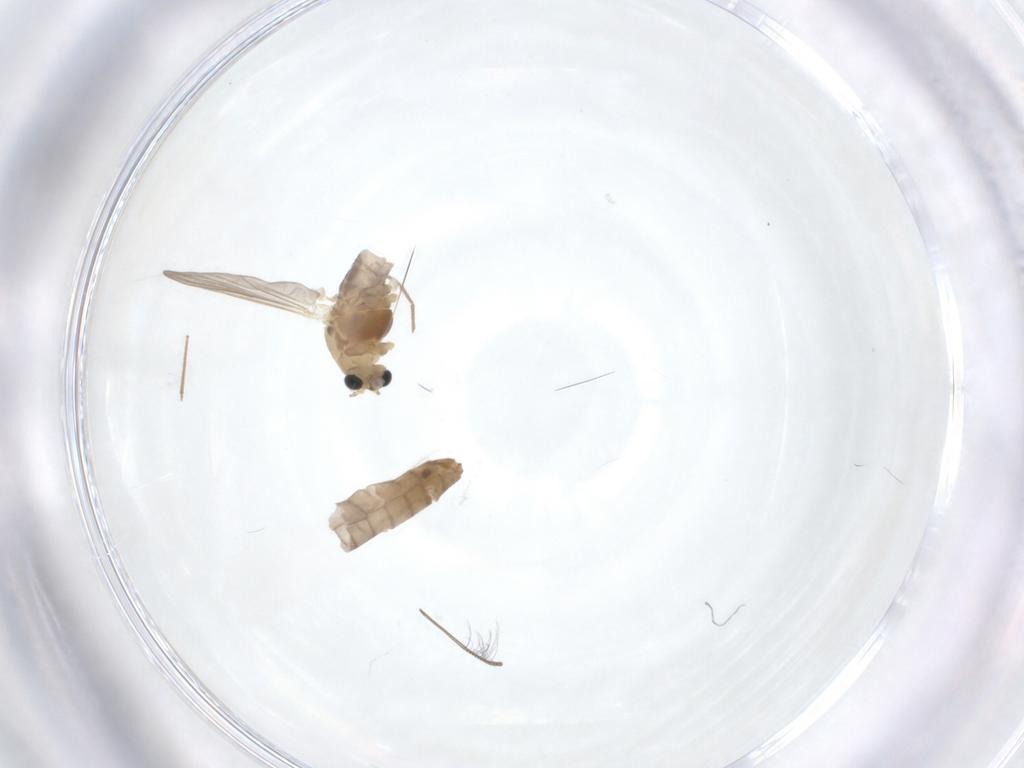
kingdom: Animalia
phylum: Arthropoda
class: Insecta
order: Diptera
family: Chironomidae
